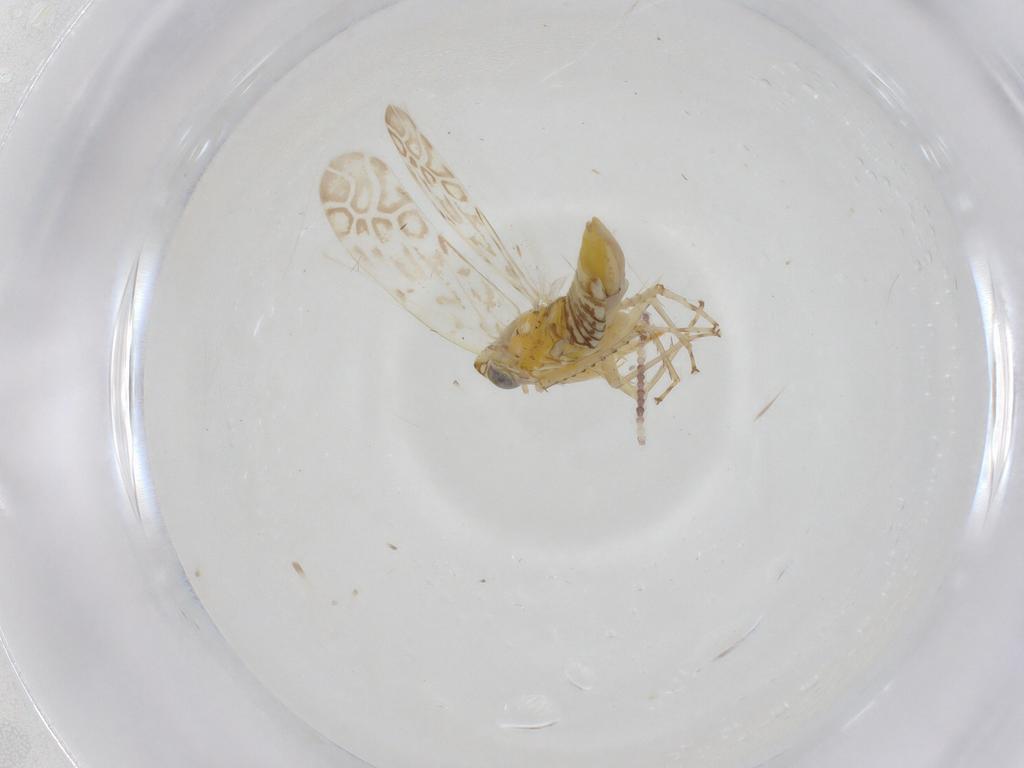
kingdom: Animalia
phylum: Arthropoda
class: Insecta
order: Hemiptera
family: Cicadellidae
